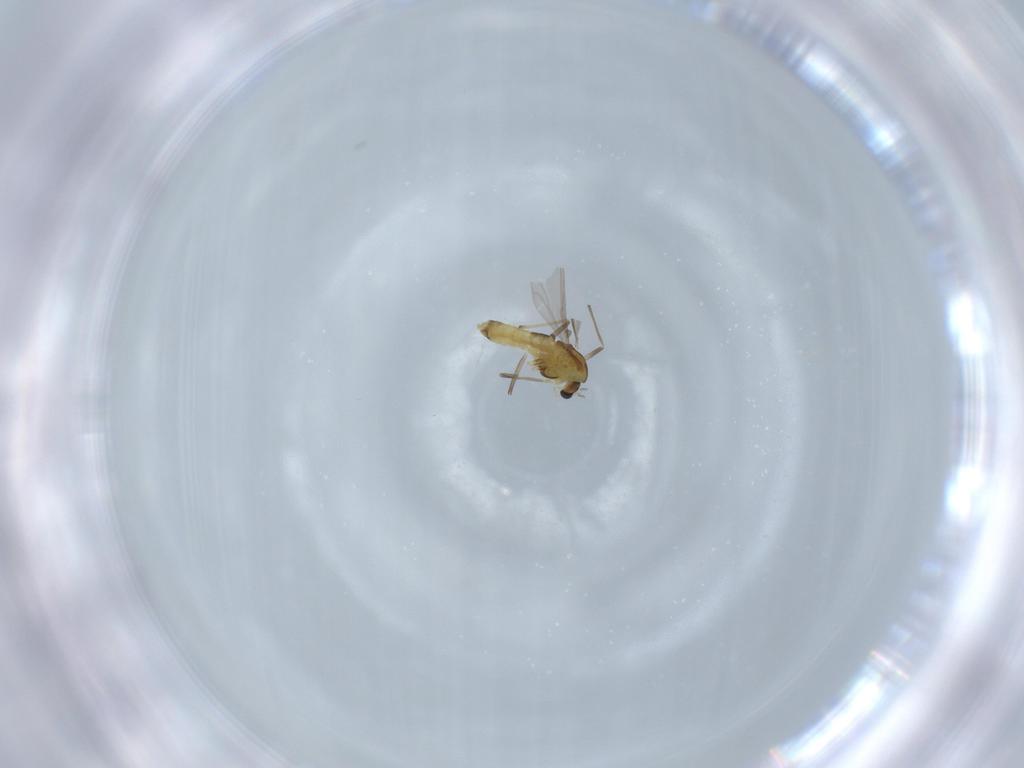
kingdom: Animalia
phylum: Arthropoda
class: Insecta
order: Diptera
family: Chironomidae
